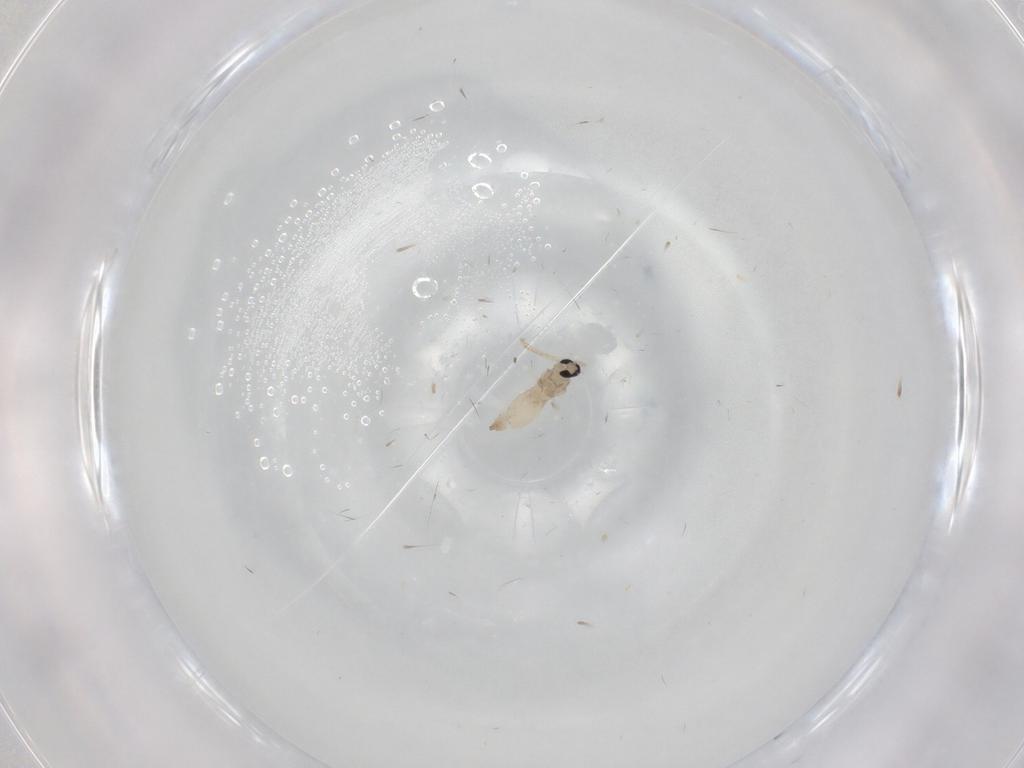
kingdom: Animalia
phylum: Arthropoda
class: Insecta
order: Diptera
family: Cecidomyiidae
